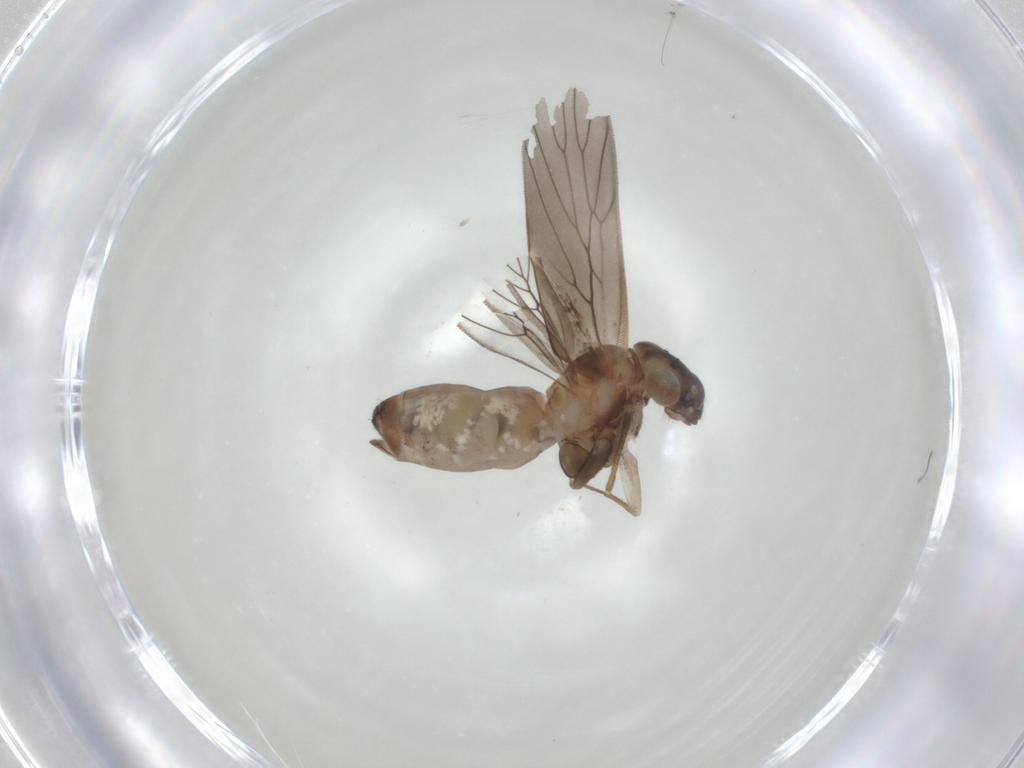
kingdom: Animalia
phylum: Arthropoda
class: Insecta
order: Psocodea
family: Lepidopsocidae
